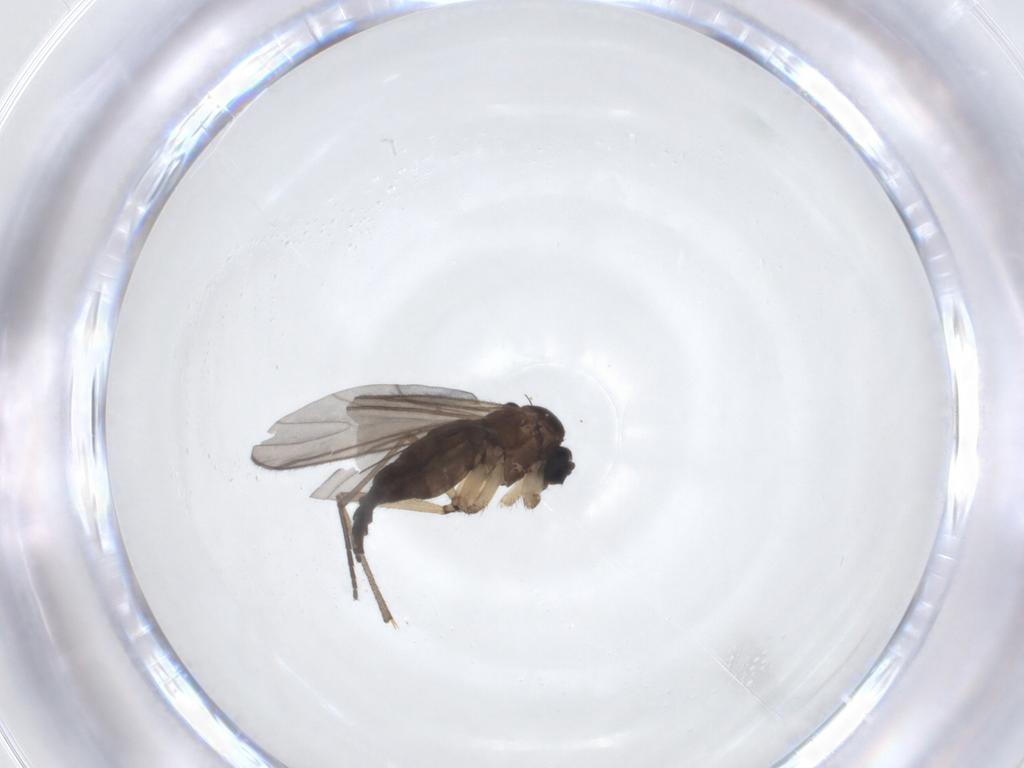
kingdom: Animalia
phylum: Arthropoda
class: Insecta
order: Diptera
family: Sciaridae
